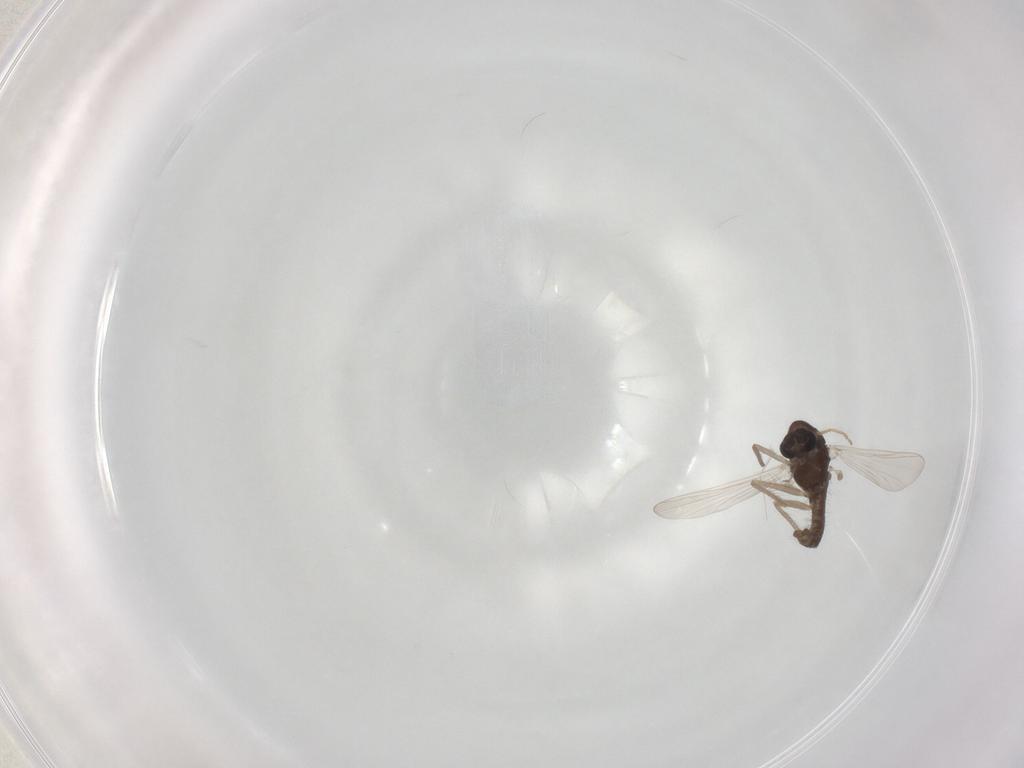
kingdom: Animalia
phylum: Arthropoda
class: Insecta
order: Diptera
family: Chironomidae
